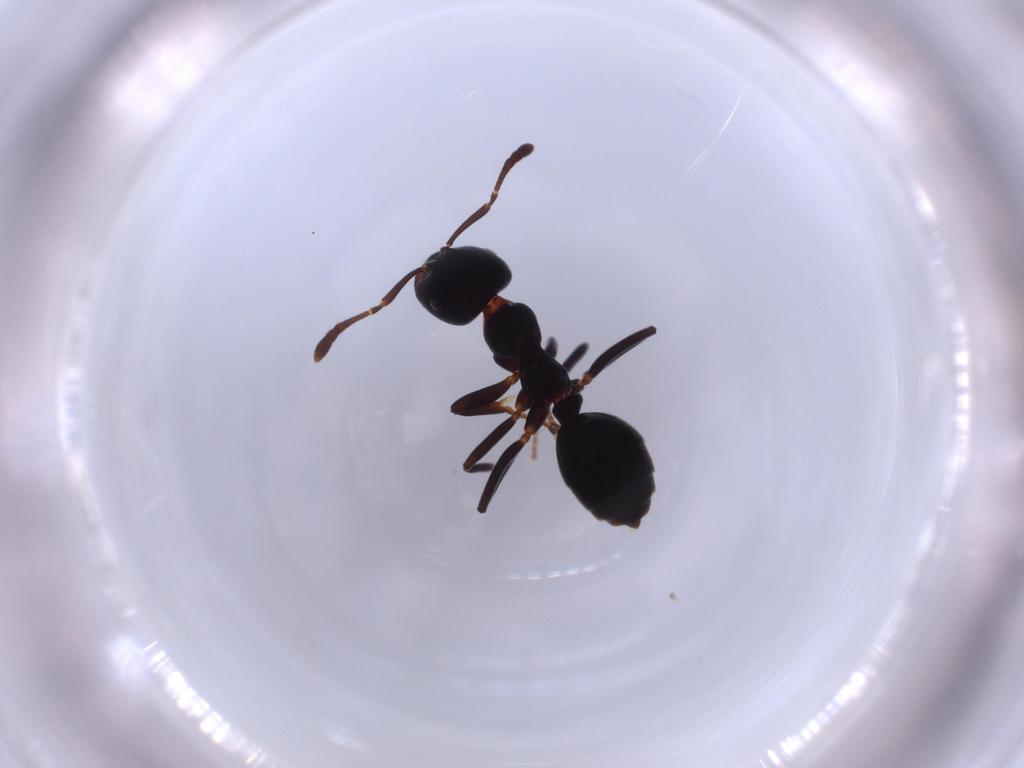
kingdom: Animalia
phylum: Arthropoda
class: Insecta
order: Hymenoptera
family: Formicidae
